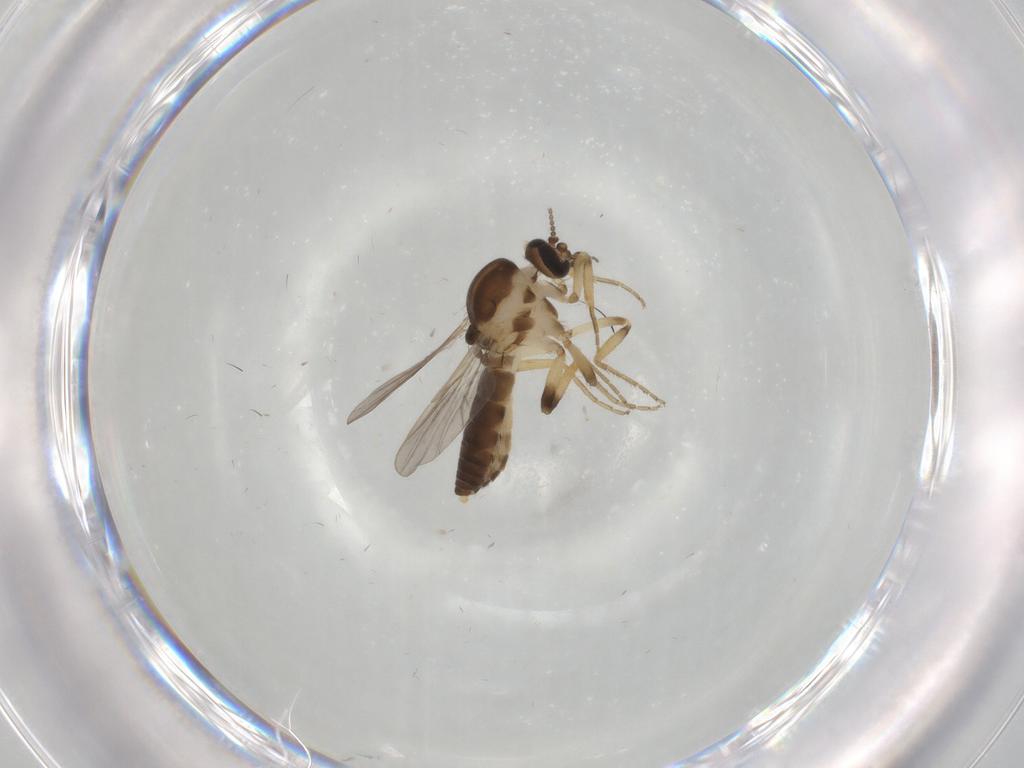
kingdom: Animalia
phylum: Arthropoda
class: Insecta
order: Diptera
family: Ceratopogonidae
